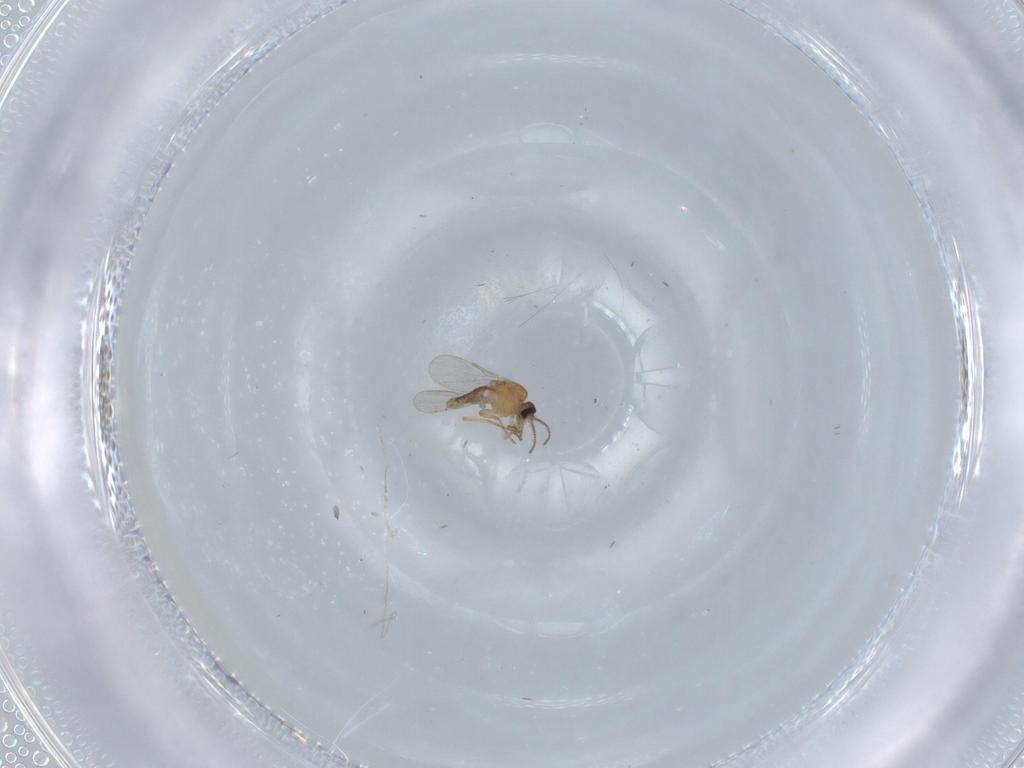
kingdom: Animalia
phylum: Arthropoda
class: Insecta
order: Diptera
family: Ceratopogonidae
